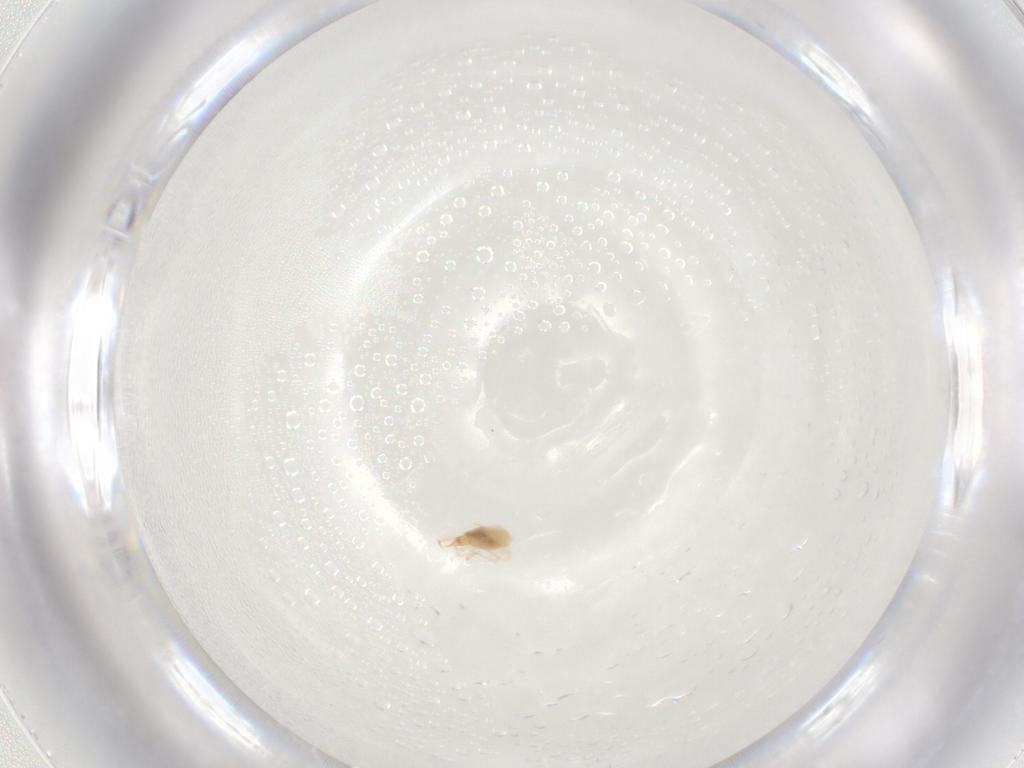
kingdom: Animalia
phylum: Arthropoda
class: Arachnida
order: Trombidiformes
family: Cunaxidae
